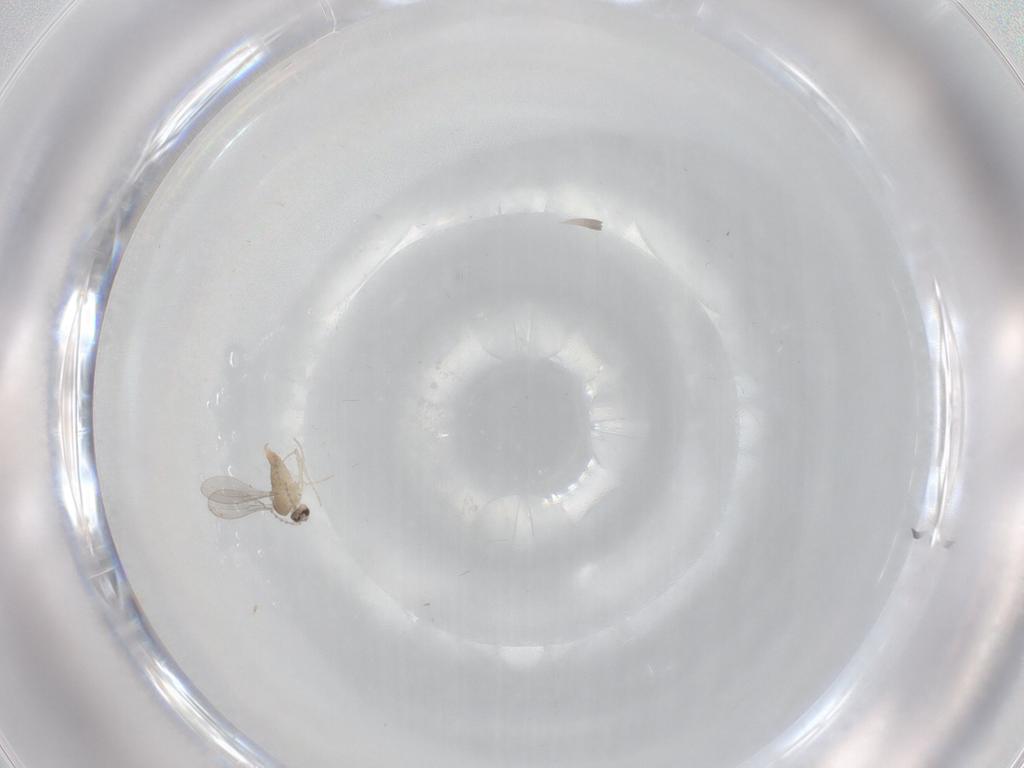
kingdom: Animalia
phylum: Arthropoda
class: Insecta
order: Diptera
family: Cecidomyiidae
